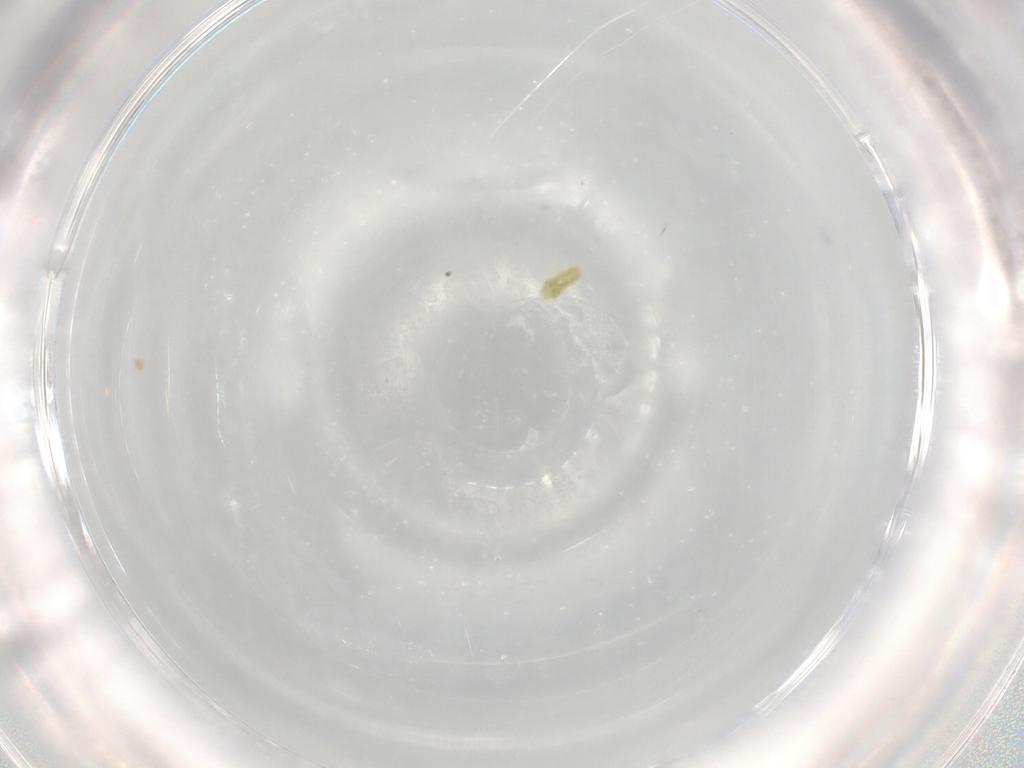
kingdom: Animalia
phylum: Arthropoda
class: Arachnida
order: Trombidiformes
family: Eupodidae
